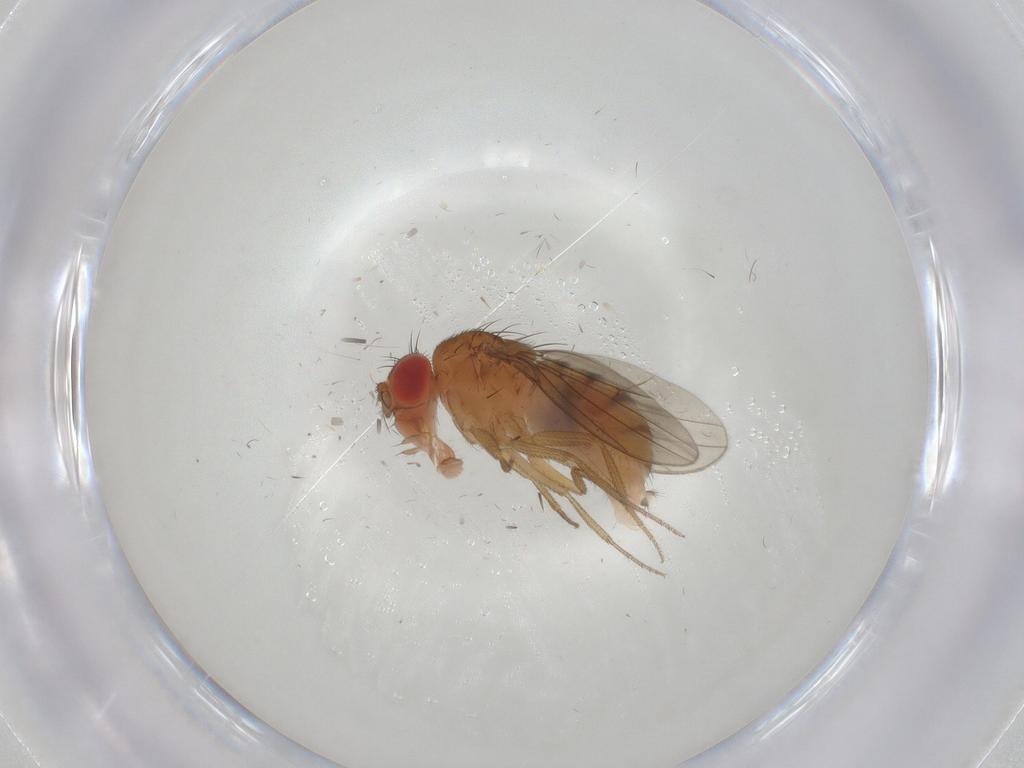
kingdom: Animalia
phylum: Arthropoda
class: Insecta
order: Diptera
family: Drosophilidae
